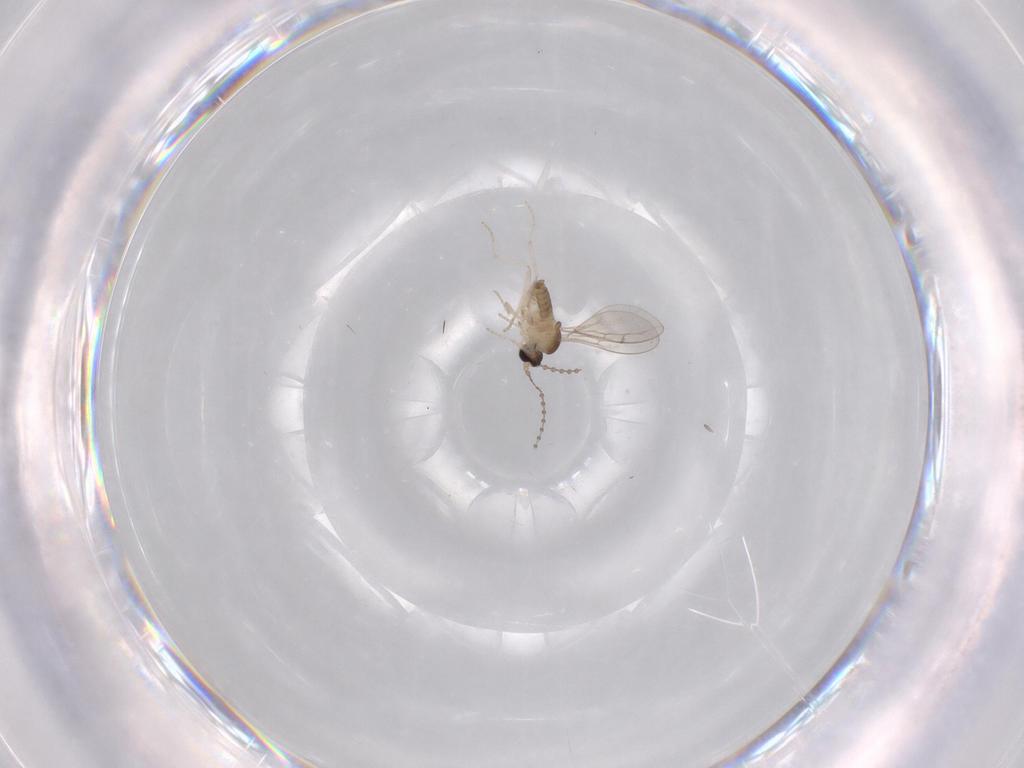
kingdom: Animalia
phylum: Arthropoda
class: Insecta
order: Diptera
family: Cecidomyiidae
